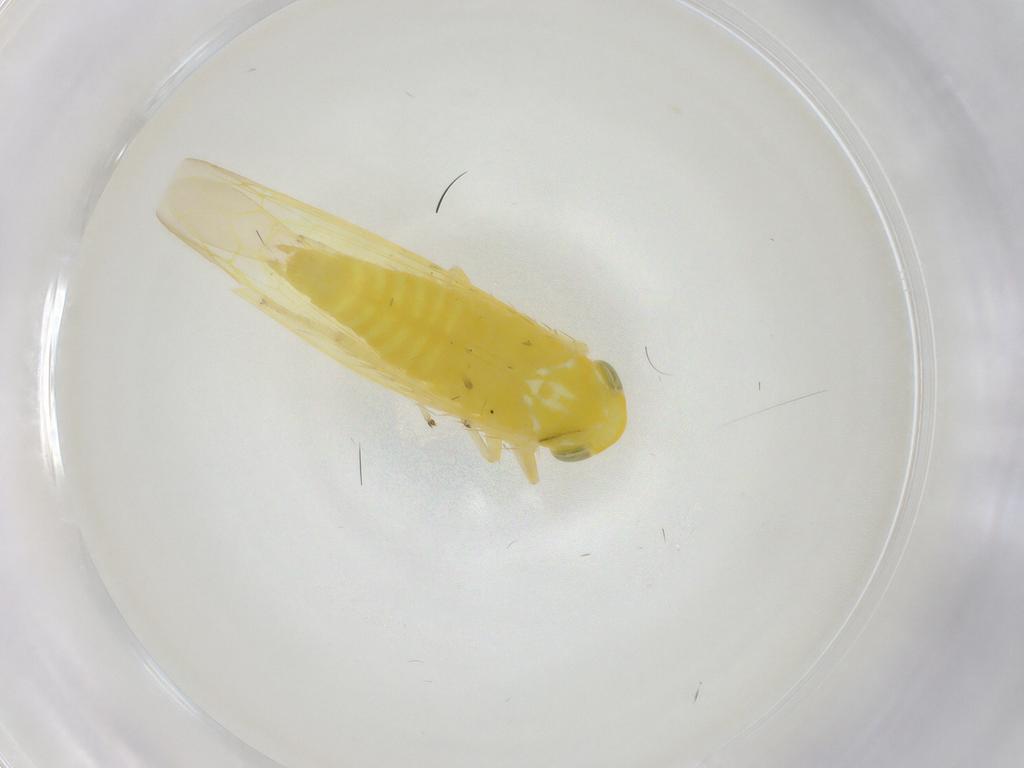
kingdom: Animalia
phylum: Arthropoda
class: Insecta
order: Hemiptera
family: Cicadellidae
